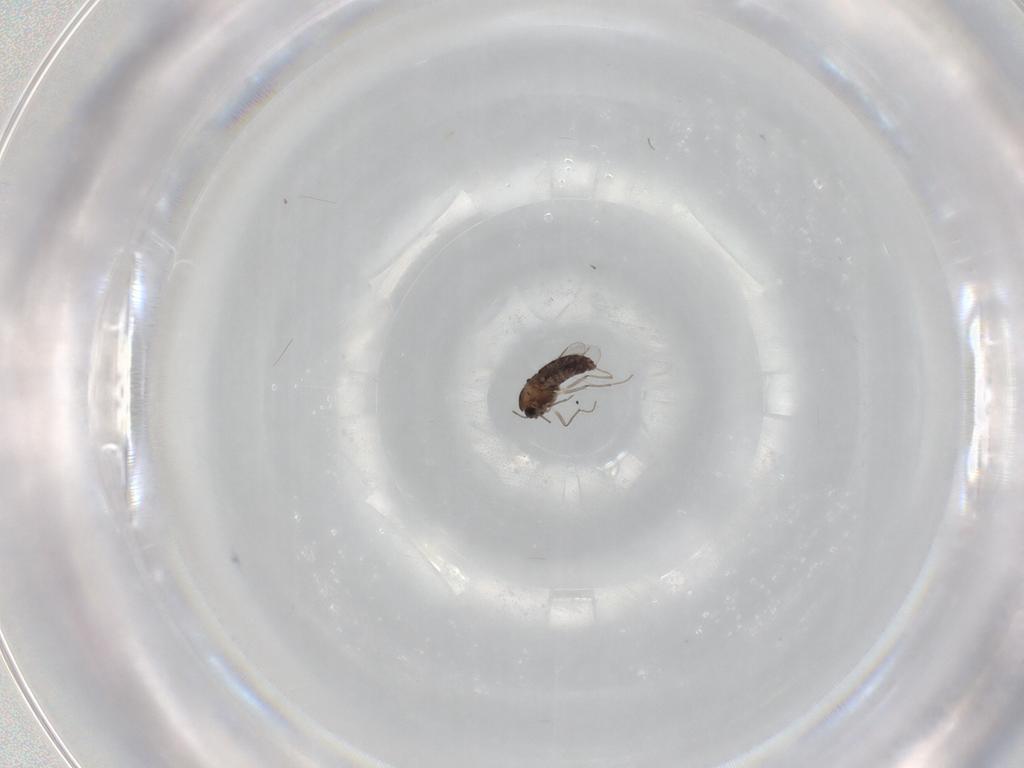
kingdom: Animalia
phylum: Arthropoda
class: Insecta
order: Diptera
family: Chironomidae
